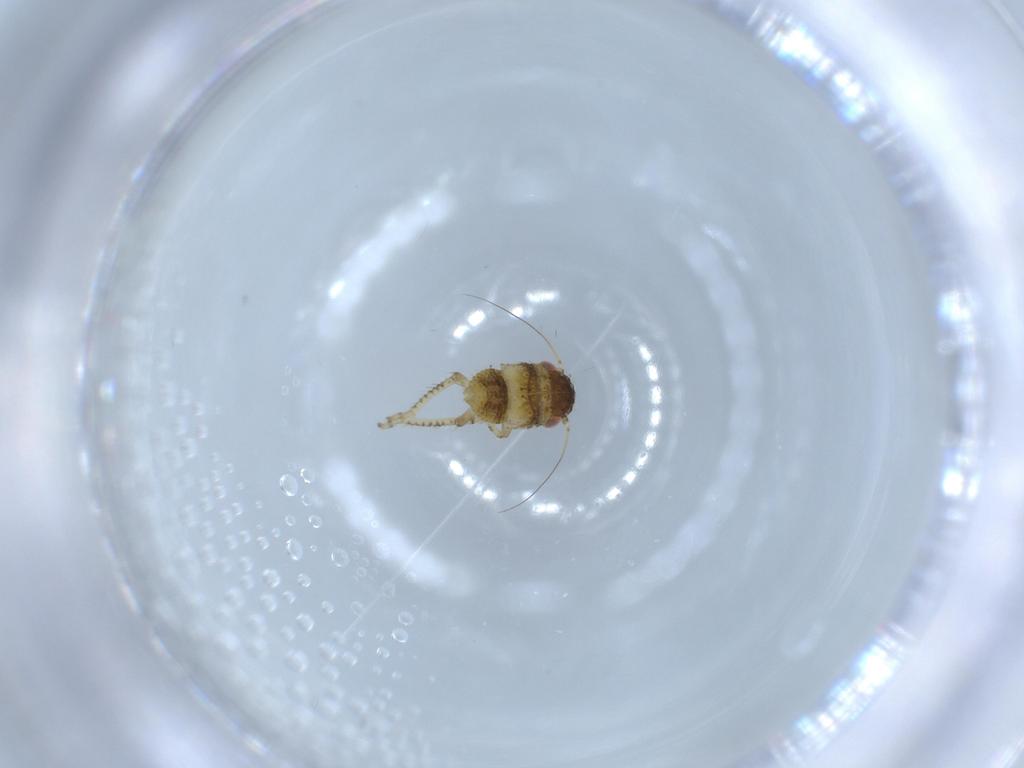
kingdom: Animalia
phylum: Arthropoda
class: Insecta
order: Hemiptera
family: Cicadellidae
